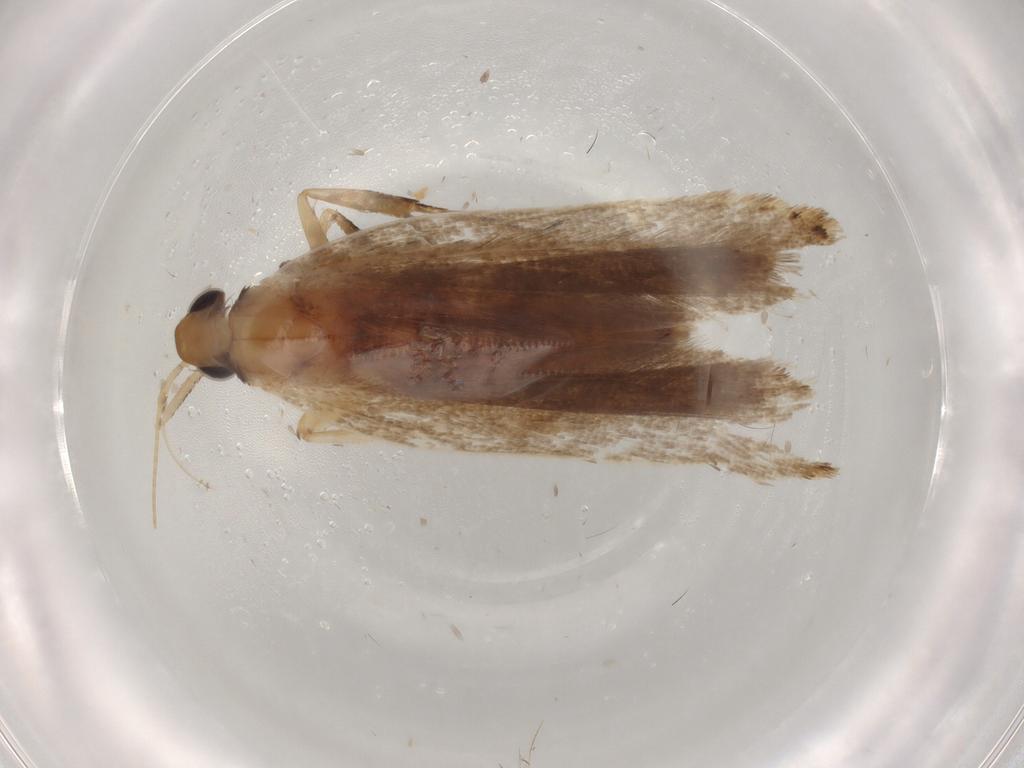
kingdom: Animalia
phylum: Arthropoda
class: Insecta
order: Lepidoptera
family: Gelechiidae
